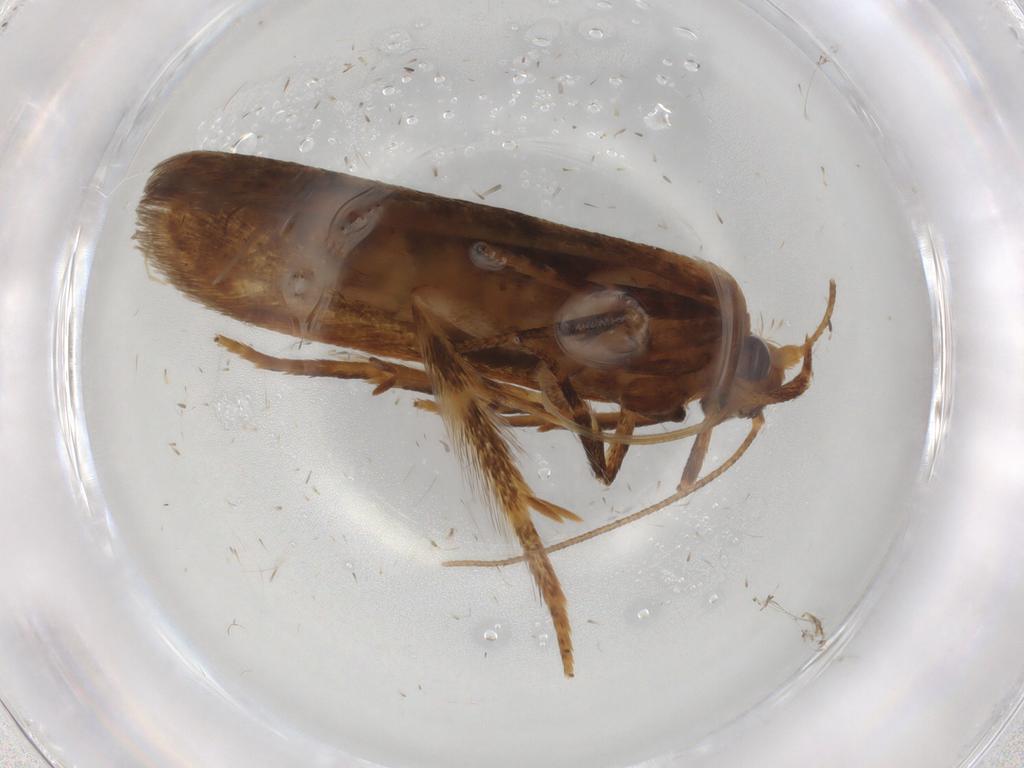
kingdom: Animalia
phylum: Arthropoda
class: Insecta
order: Lepidoptera
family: Blastobasidae
